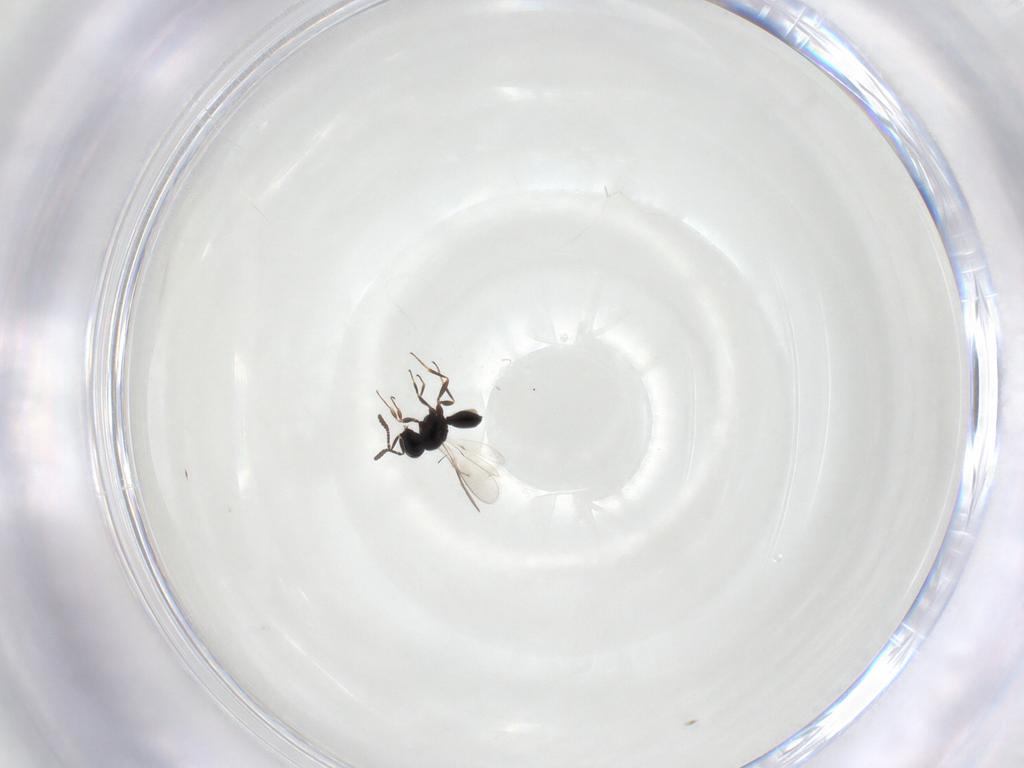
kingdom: Animalia
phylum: Arthropoda
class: Insecta
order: Hymenoptera
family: Scelionidae
